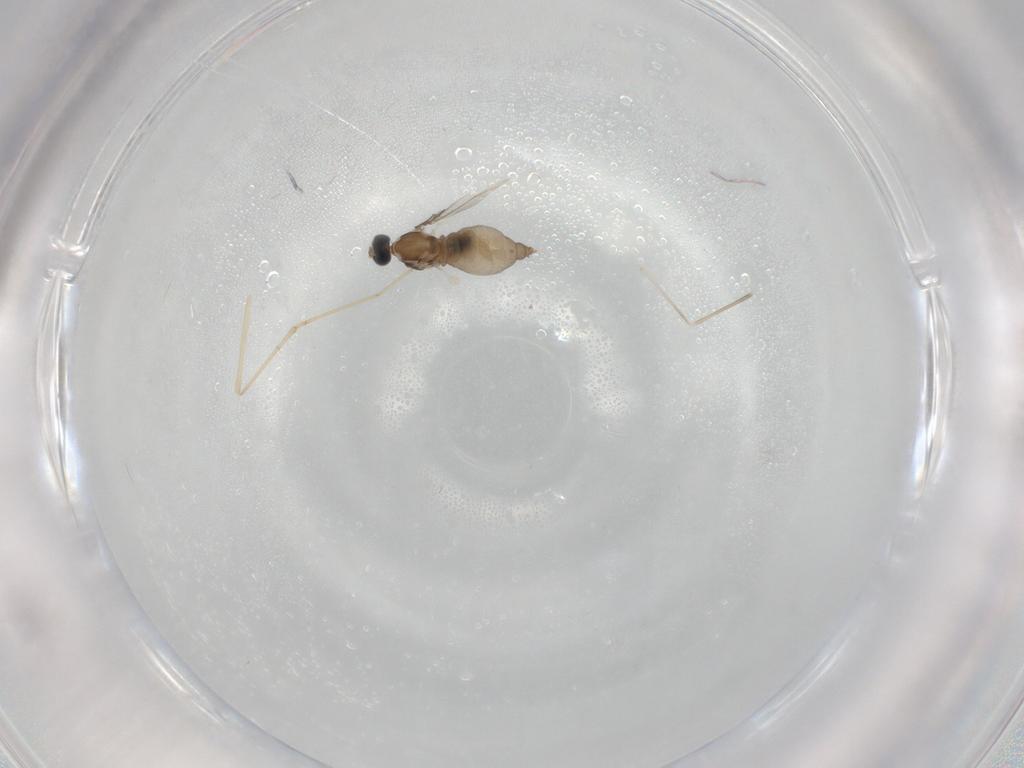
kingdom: Animalia
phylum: Arthropoda
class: Insecta
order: Diptera
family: Cecidomyiidae
